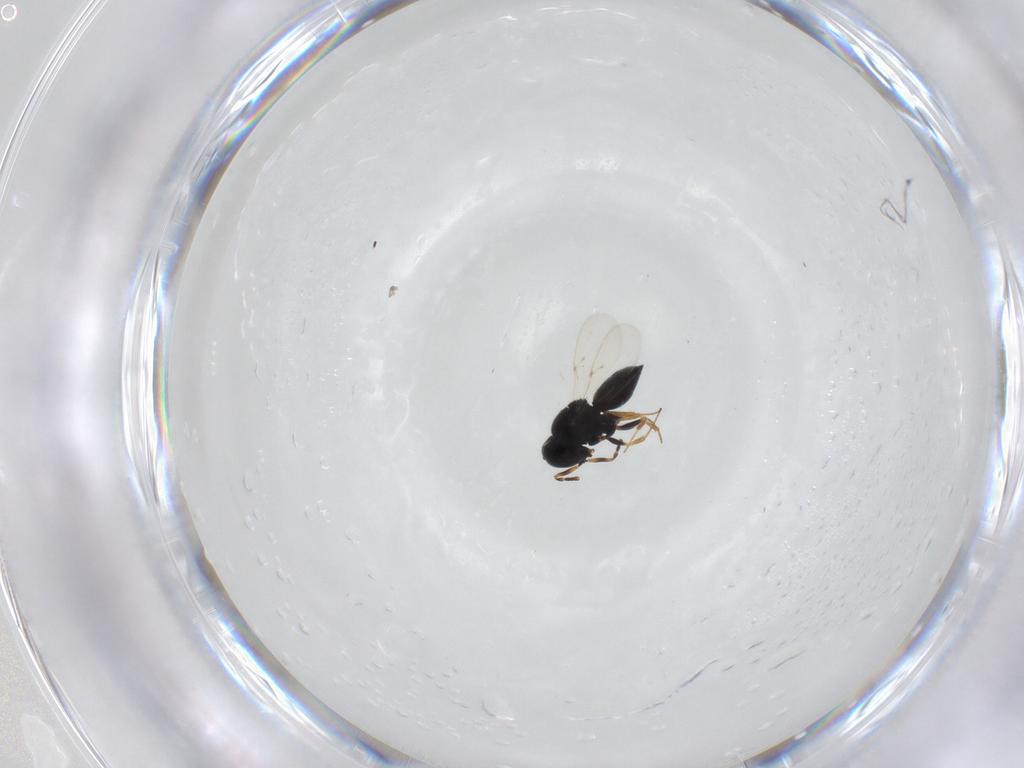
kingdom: Animalia
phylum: Arthropoda
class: Insecta
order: Hymenoptera
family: Scelionidae
